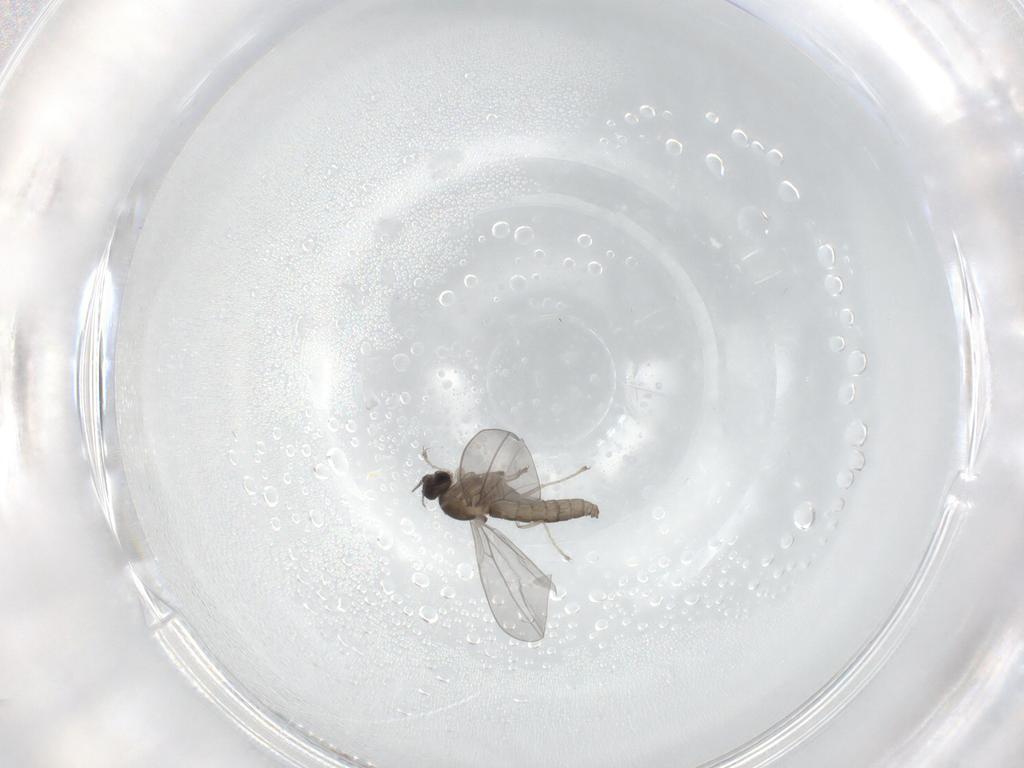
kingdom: Animalia
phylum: Arthropoda
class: Insecta
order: Diptera
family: Cecidomyiidae
